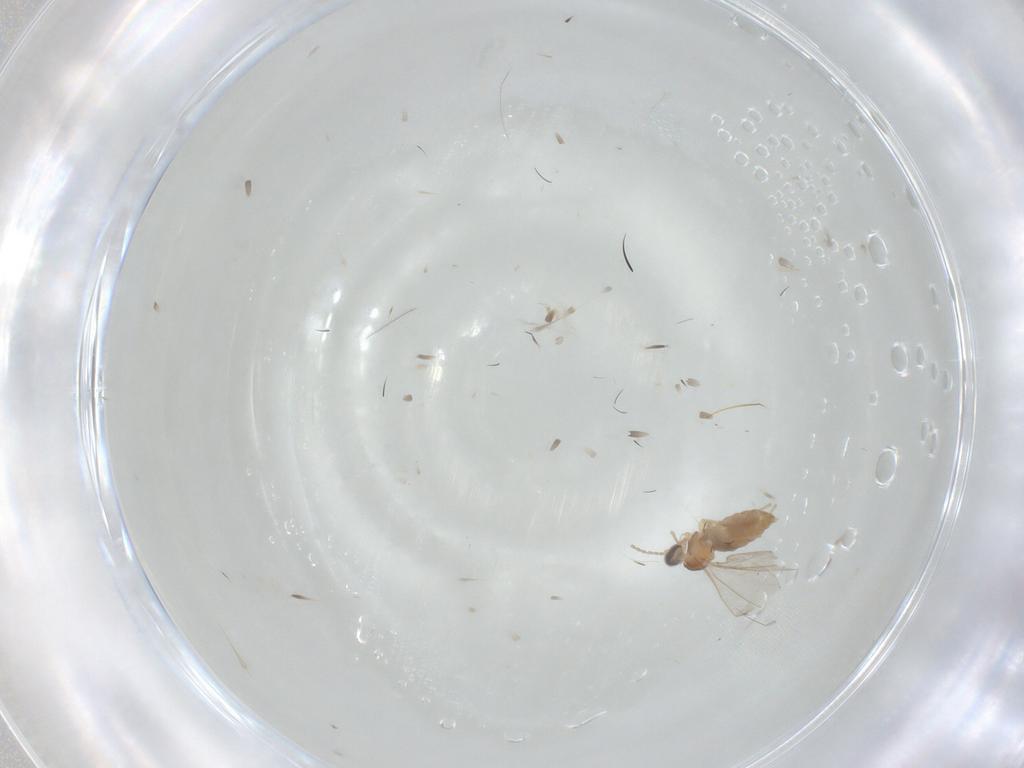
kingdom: Animalia
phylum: Arthropoda
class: Insecta
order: Diptera
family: Cecidomyiidae
